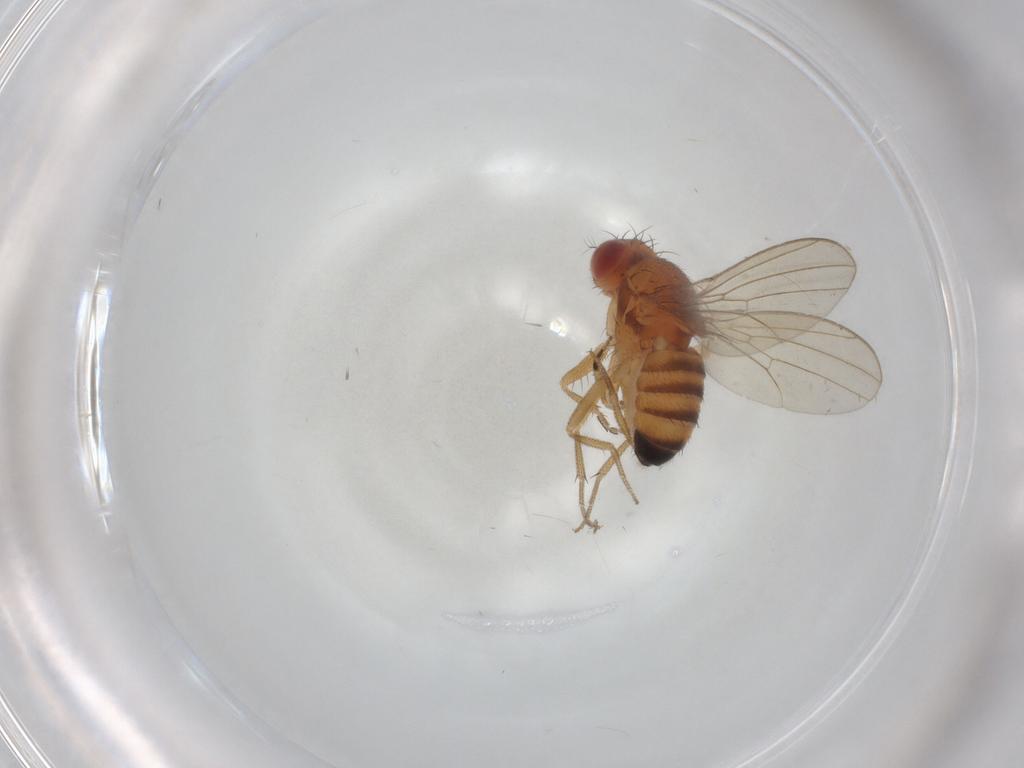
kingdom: Animalia
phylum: Arthropoda
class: Insecta
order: Diptera
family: Drosophilidae
